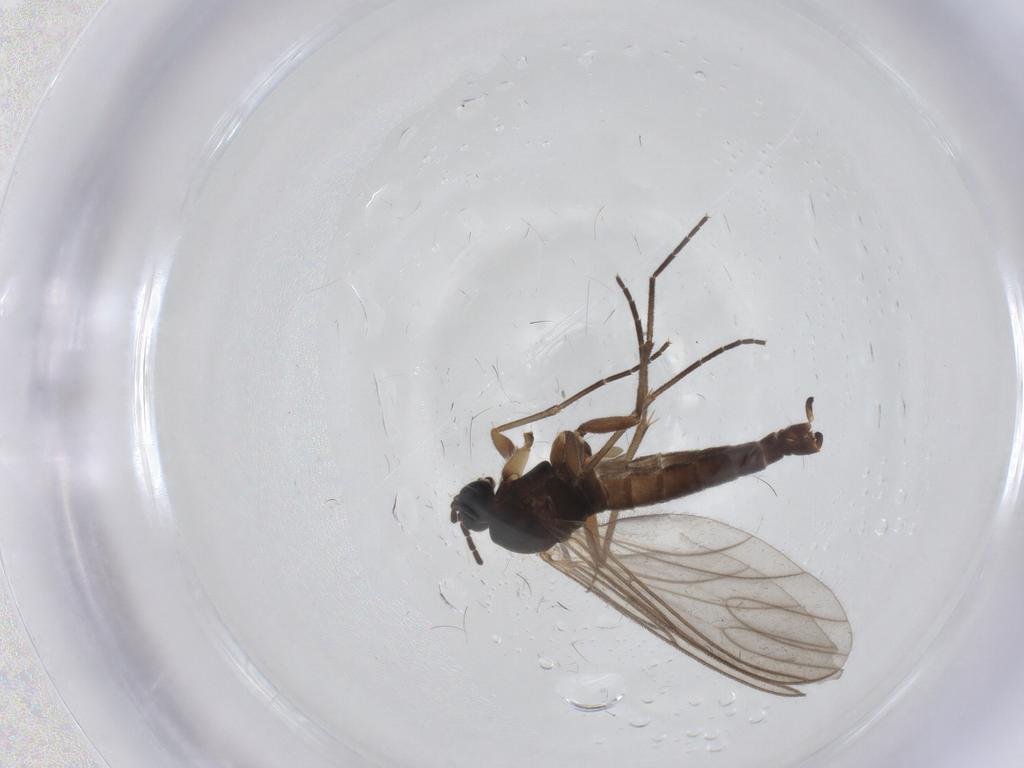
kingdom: Animalia
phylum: Arthropoda
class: Insecta
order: Diptera
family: Sciaridae
